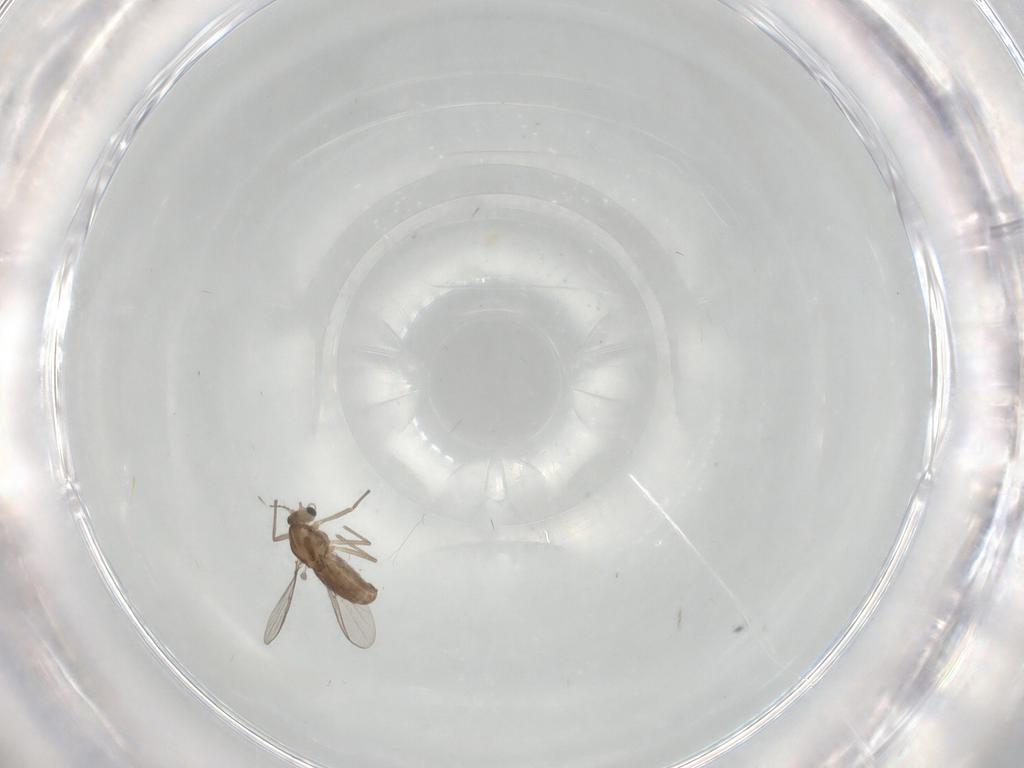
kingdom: Animalia
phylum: Arthropoda
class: Insecta
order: Diptera
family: Chironomidae
